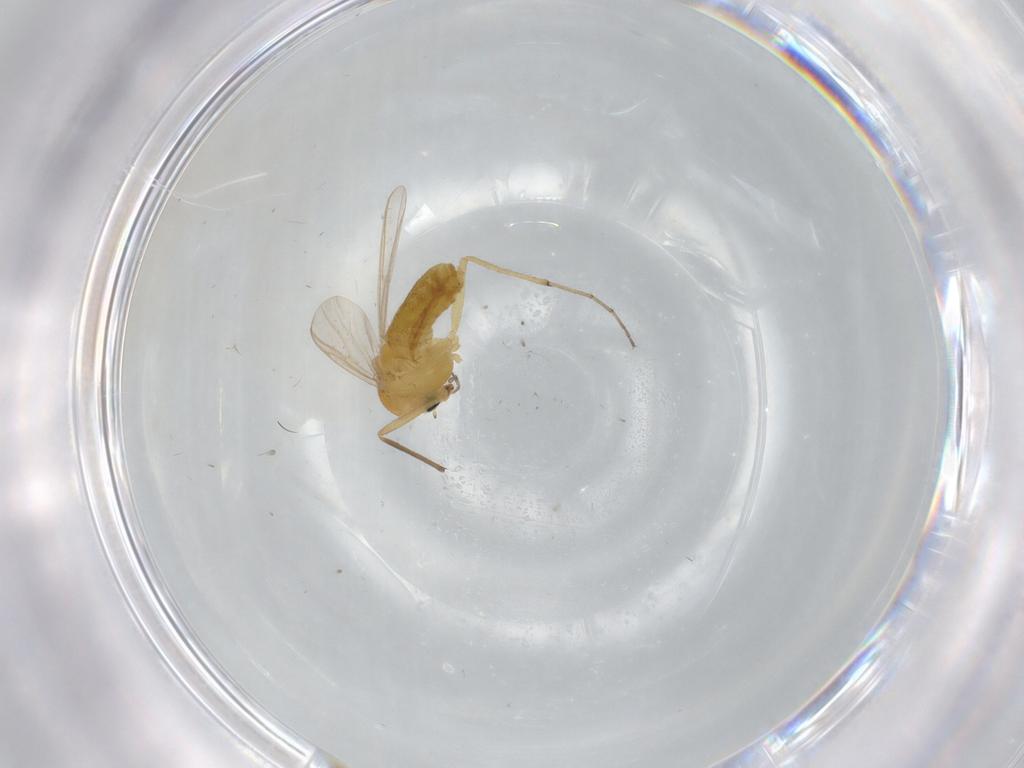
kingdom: Animalia
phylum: Arthropoda
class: Insecta
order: Diptera
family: Chironomidae
